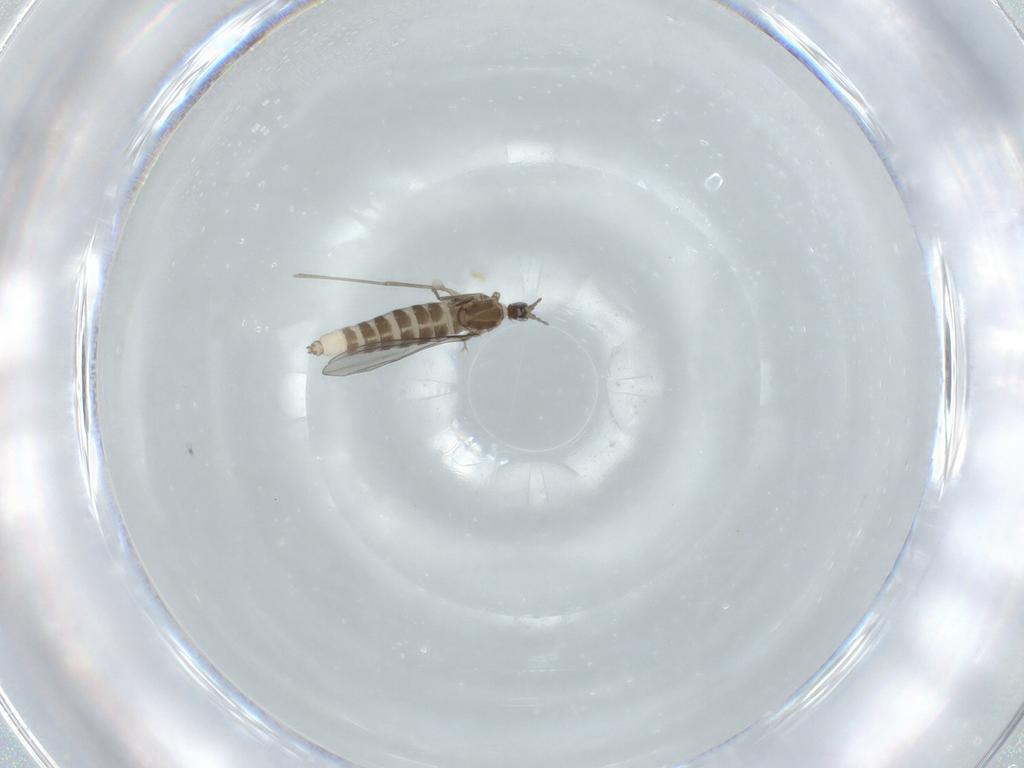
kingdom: Animalia
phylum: Arthropoda
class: Insecta
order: Diptera
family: Cecidomyiidae
